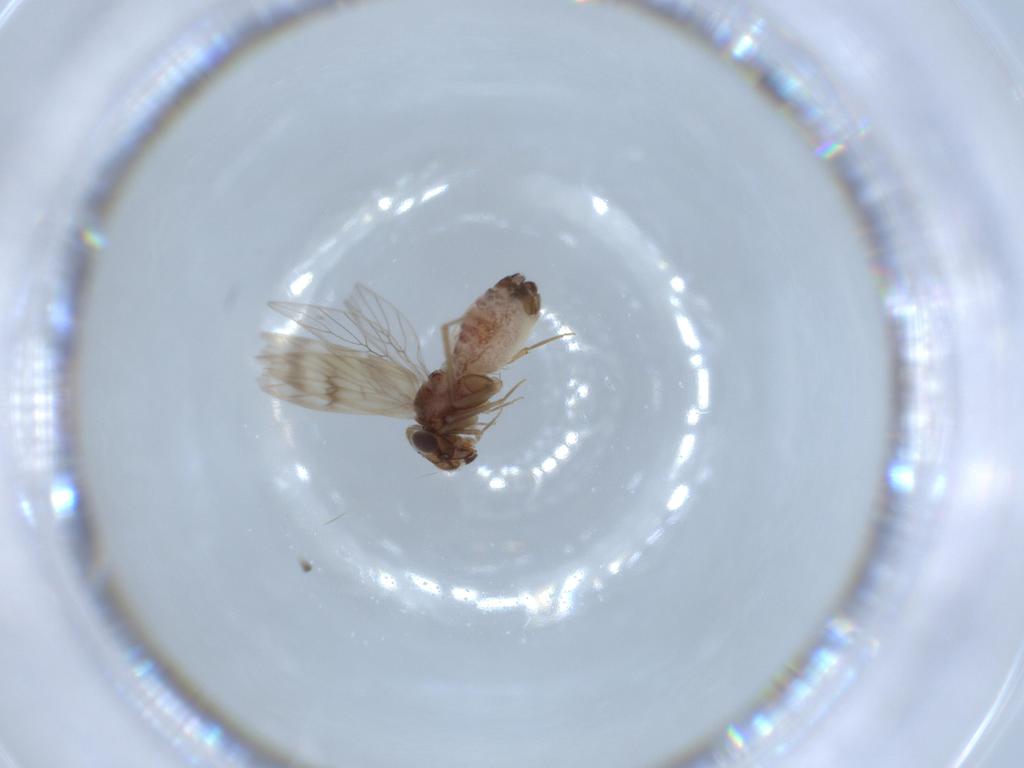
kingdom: Animalia
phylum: Arthropoda
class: Insecta
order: Psocodea
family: Lepidopsocidae
